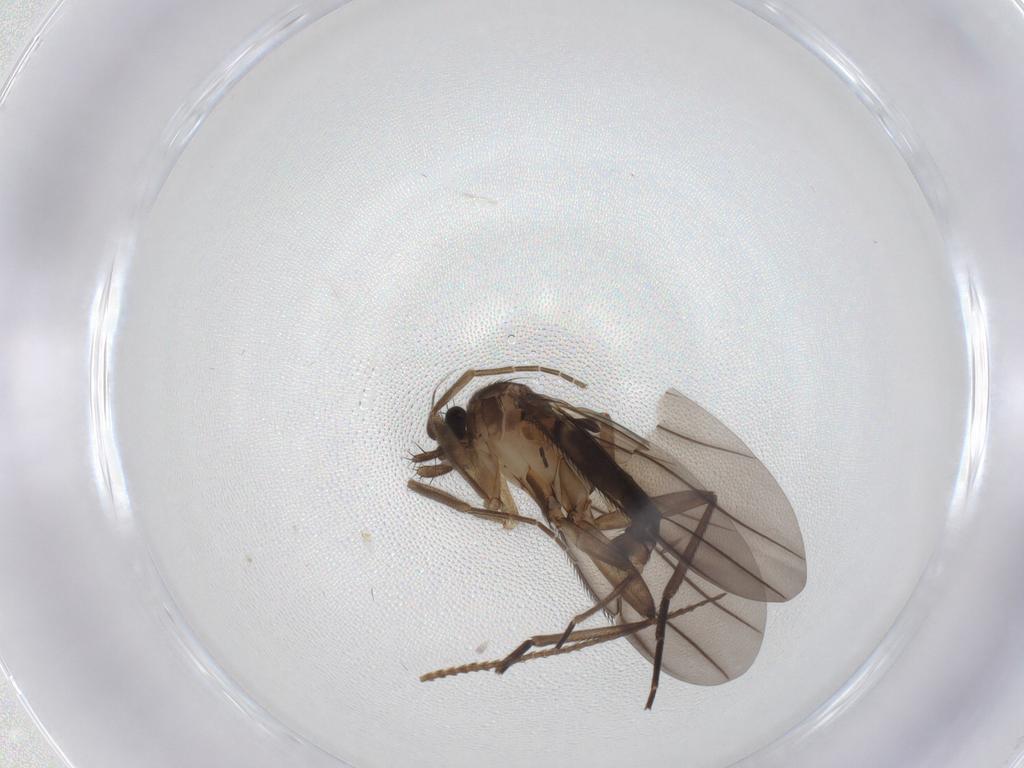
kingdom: Animalia
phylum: Arthropoda
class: Insecta
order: Diptera
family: Phoridae
